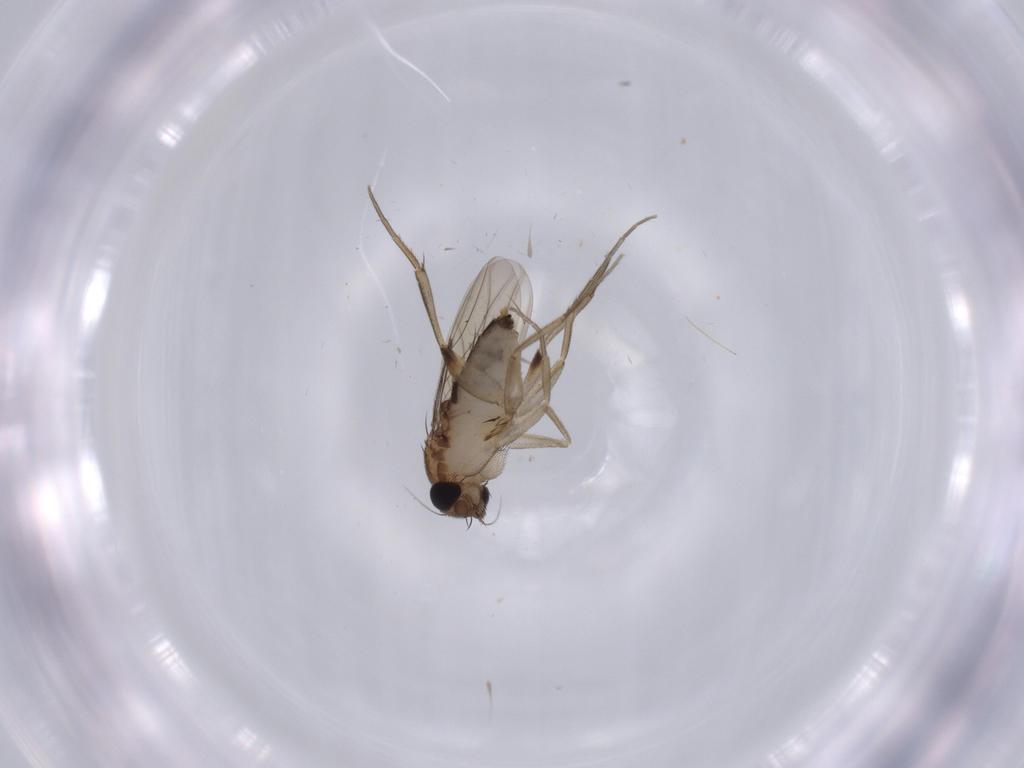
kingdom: Animalia
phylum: Arthropoda
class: Insecta
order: Diptera
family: Phoridae
